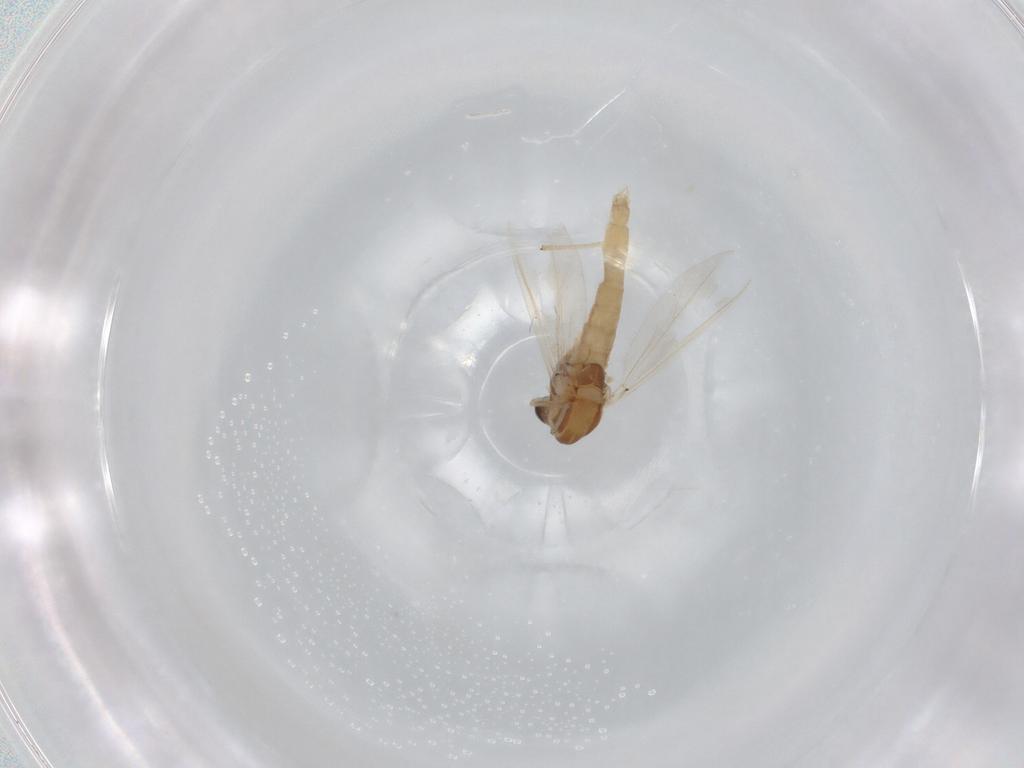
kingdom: Animalia
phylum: Arthropoda
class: Insecta
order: Diptera
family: Chironomidae
